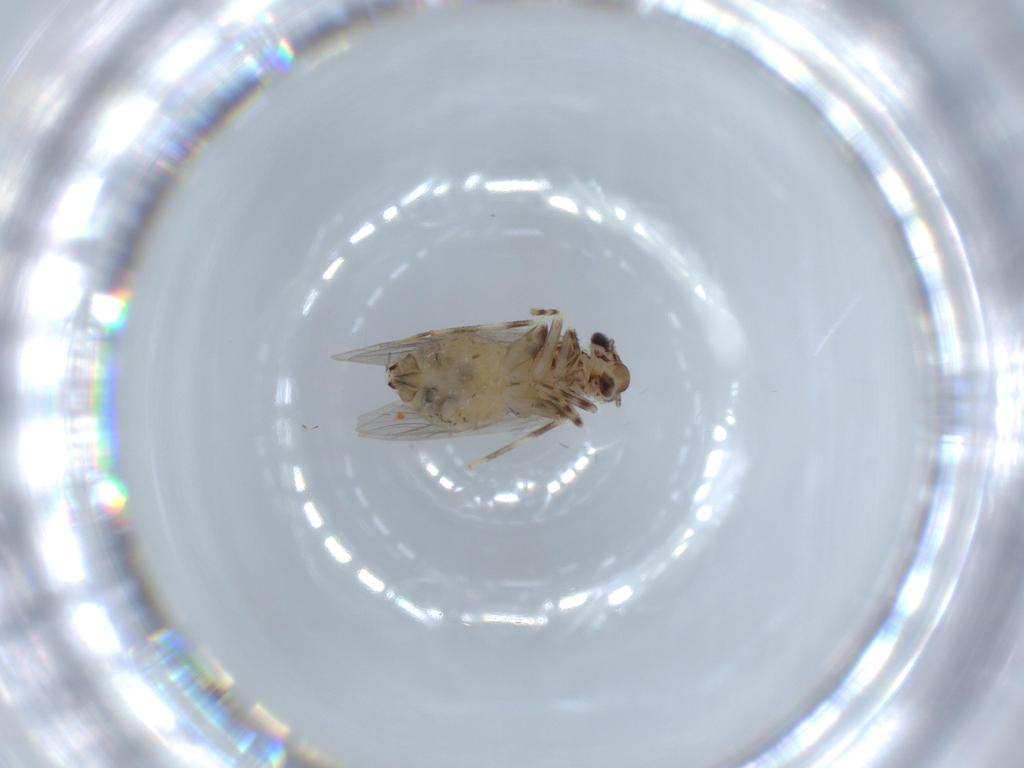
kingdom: Animalia
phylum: Arthropoda
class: Insecta
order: Psocodea
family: Lepidopsocidae
